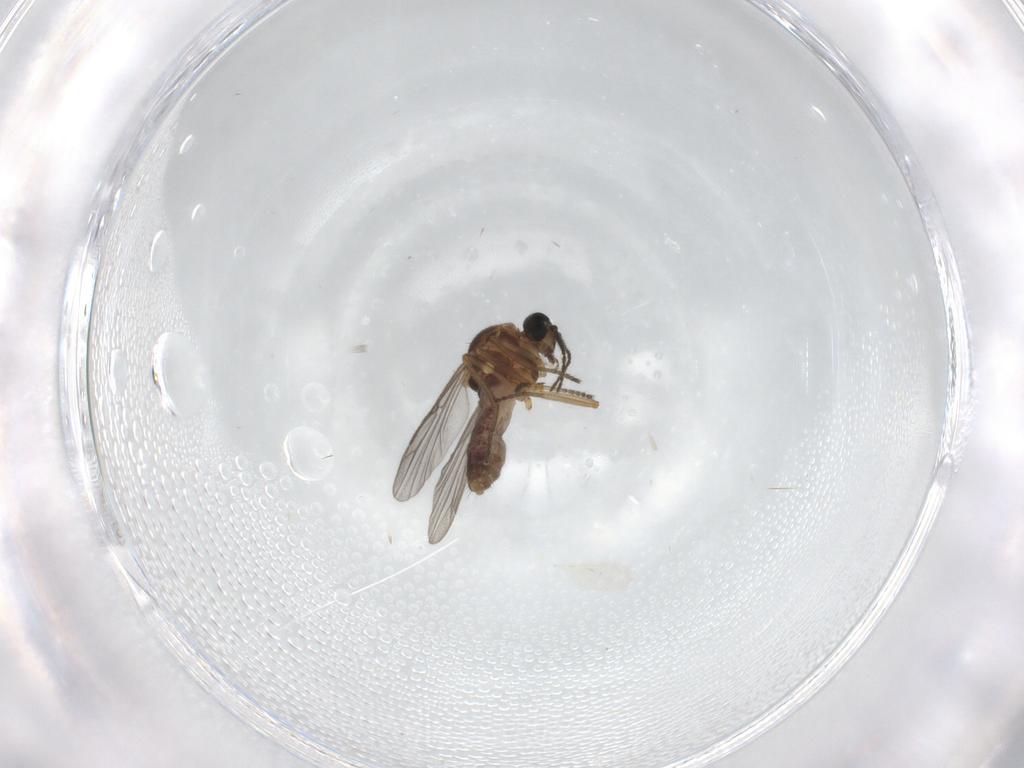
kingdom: Animalia
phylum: Arthropoda
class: Insecta
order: Diptera
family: Ceratopogonidae
